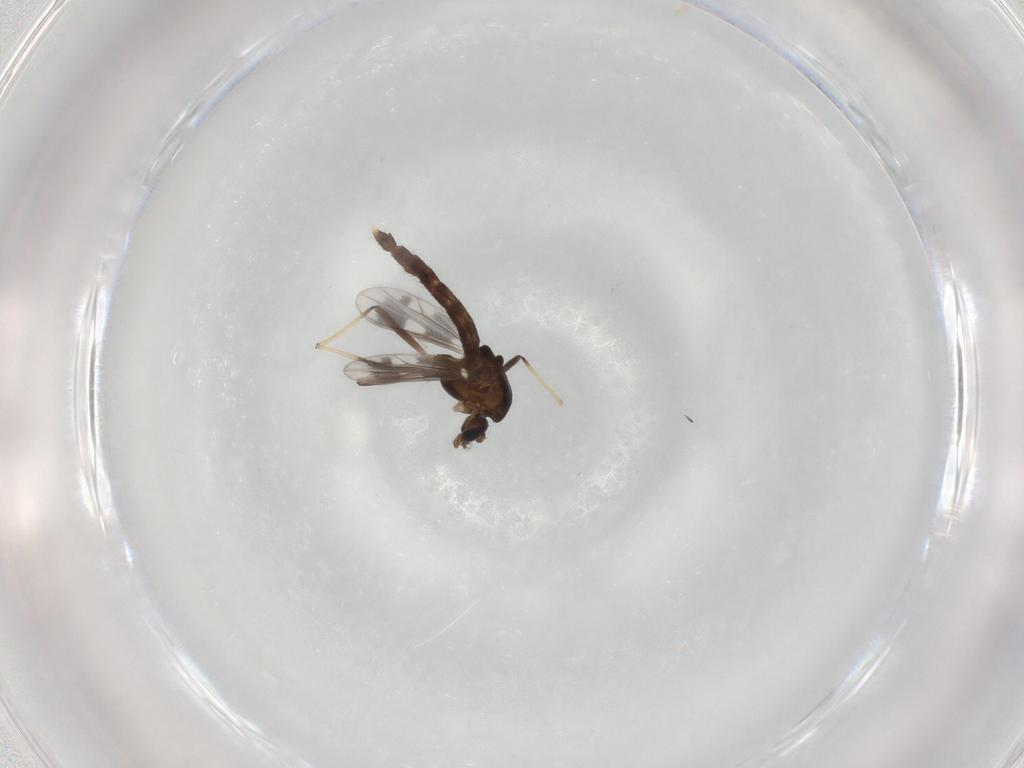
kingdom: Animalia
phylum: Arthropoda
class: Insecta
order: Diptera
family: Chironomidae
